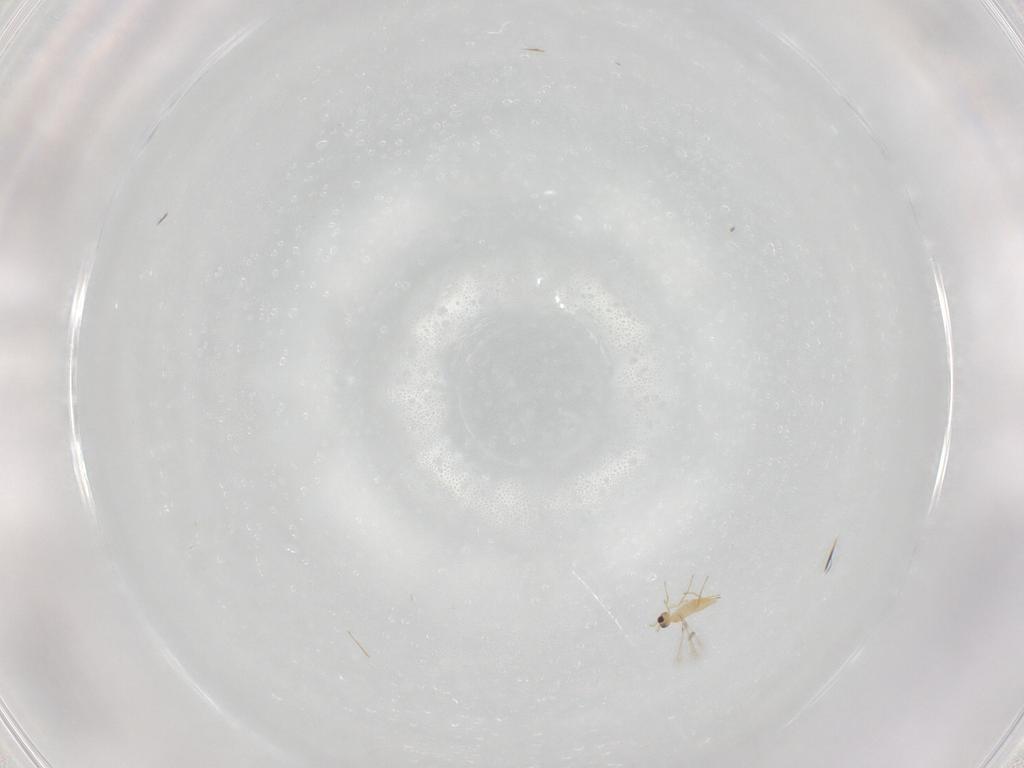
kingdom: Animalia
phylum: Arthropoda
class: Insecta
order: Hymenoptera
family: Mymaridae
